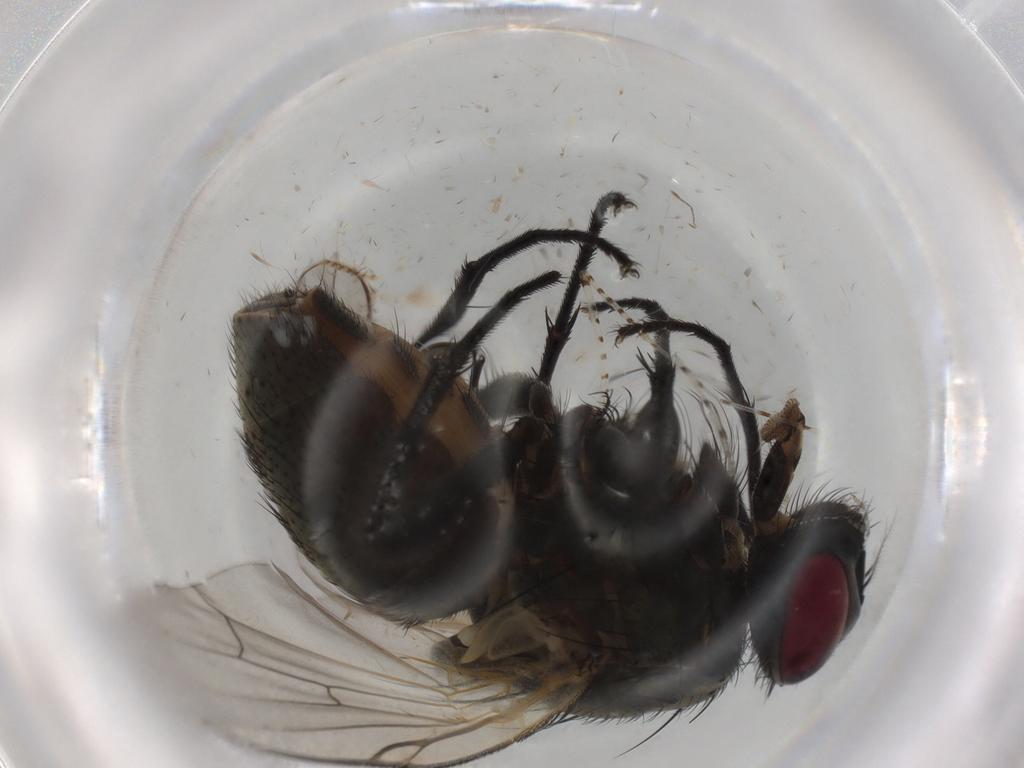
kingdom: Animalia
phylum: Arthropoda
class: Insecta
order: Diptera
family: Muscidae
